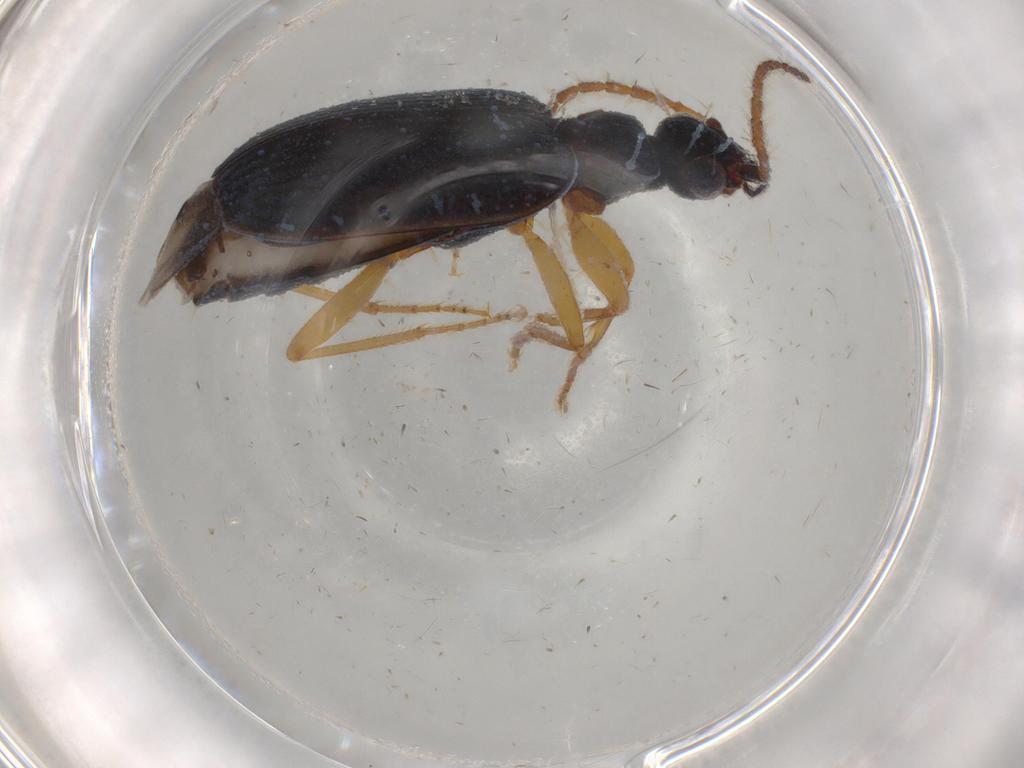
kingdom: Animalia
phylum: Arthropoda
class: Insecta
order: Coleoptera
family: Carabidae
